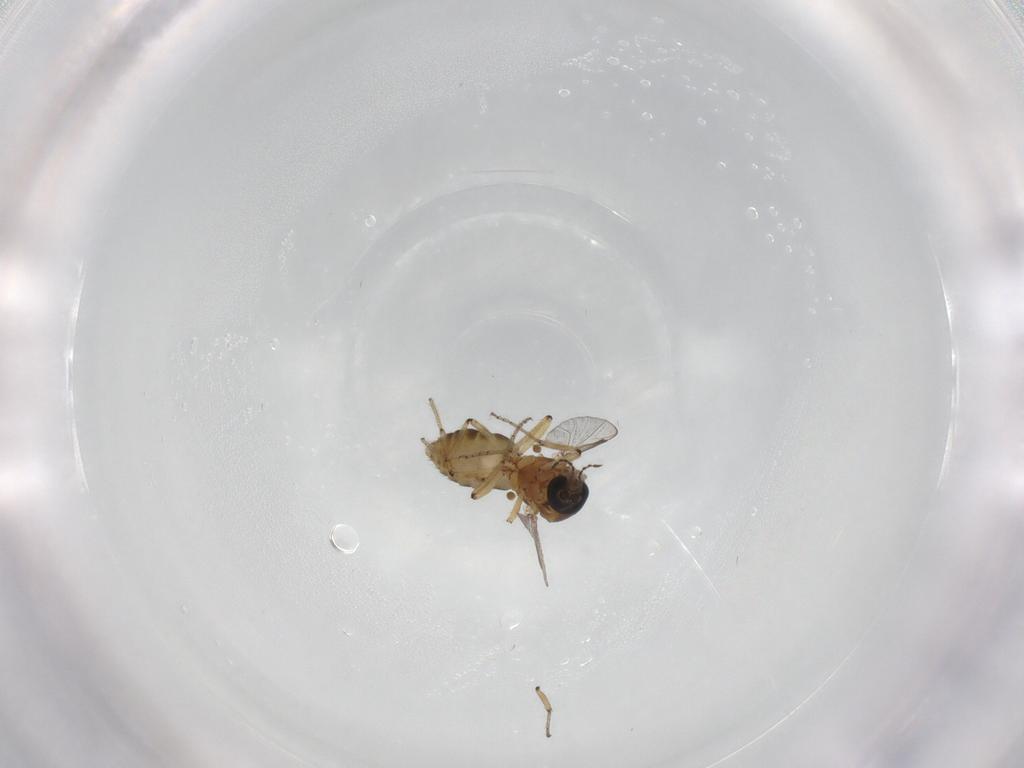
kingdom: Animalia
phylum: Arthropoda
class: Insecta
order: Diptera
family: Ceratopogonidae
